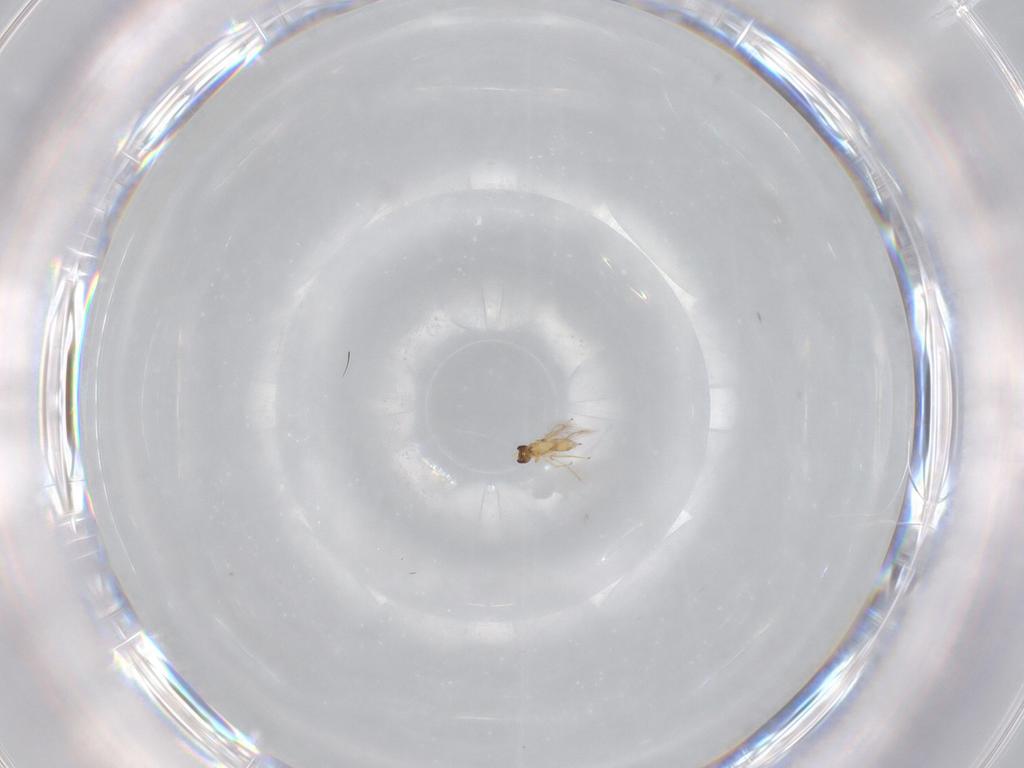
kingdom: Animalia
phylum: Arthropoda
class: Insecta
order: Hymenoptera
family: Mymaridae
